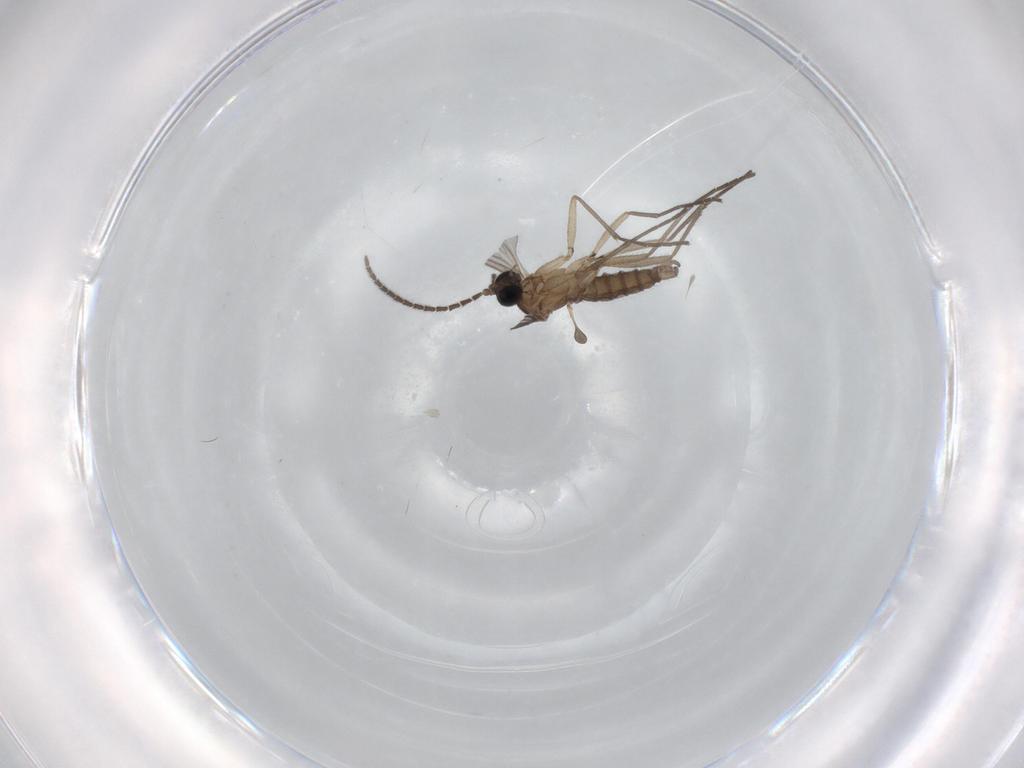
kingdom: Animalia
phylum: Arthropoda
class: Insecta
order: Diptera
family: Sciaridae
